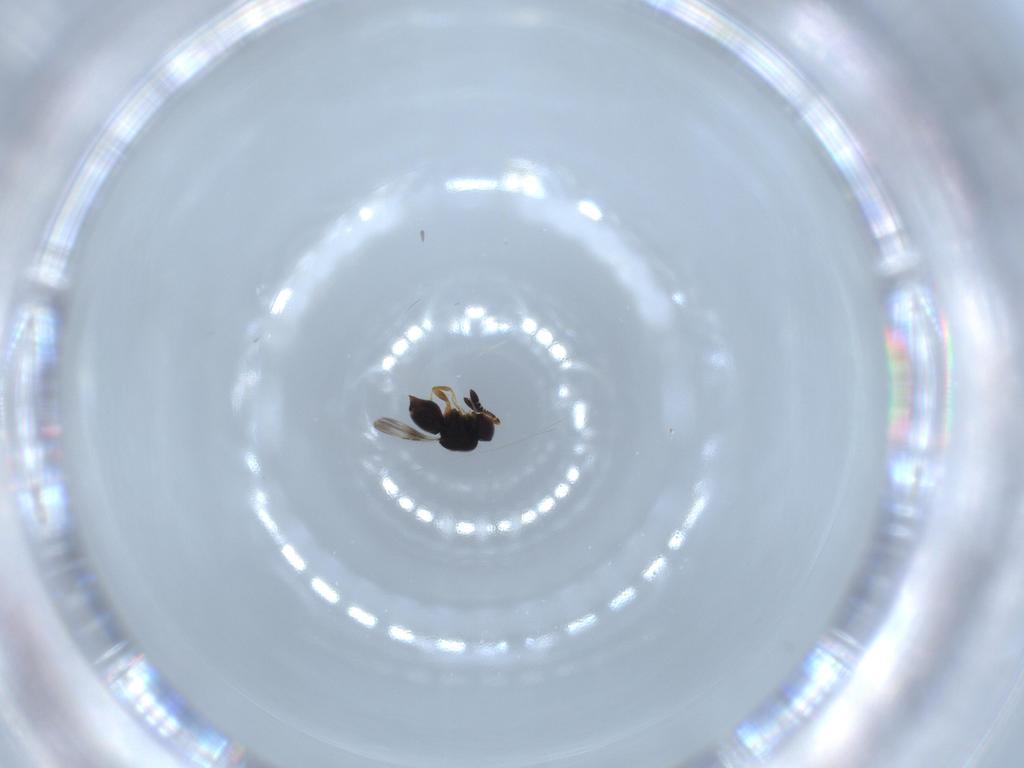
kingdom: Animalia
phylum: Arthropoda
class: Insecta
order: Hymenoptera
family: Ceraphronidae
